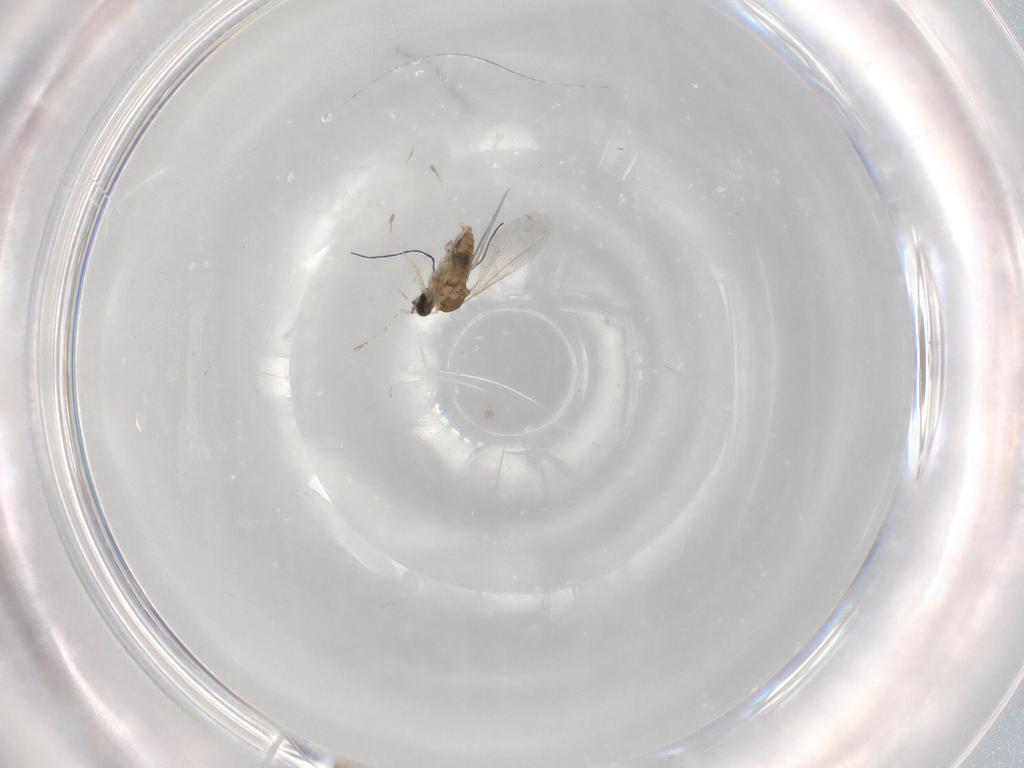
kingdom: Animalia
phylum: Arthropoda
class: Insecta
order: Diptera
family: Cecidomyiidae
